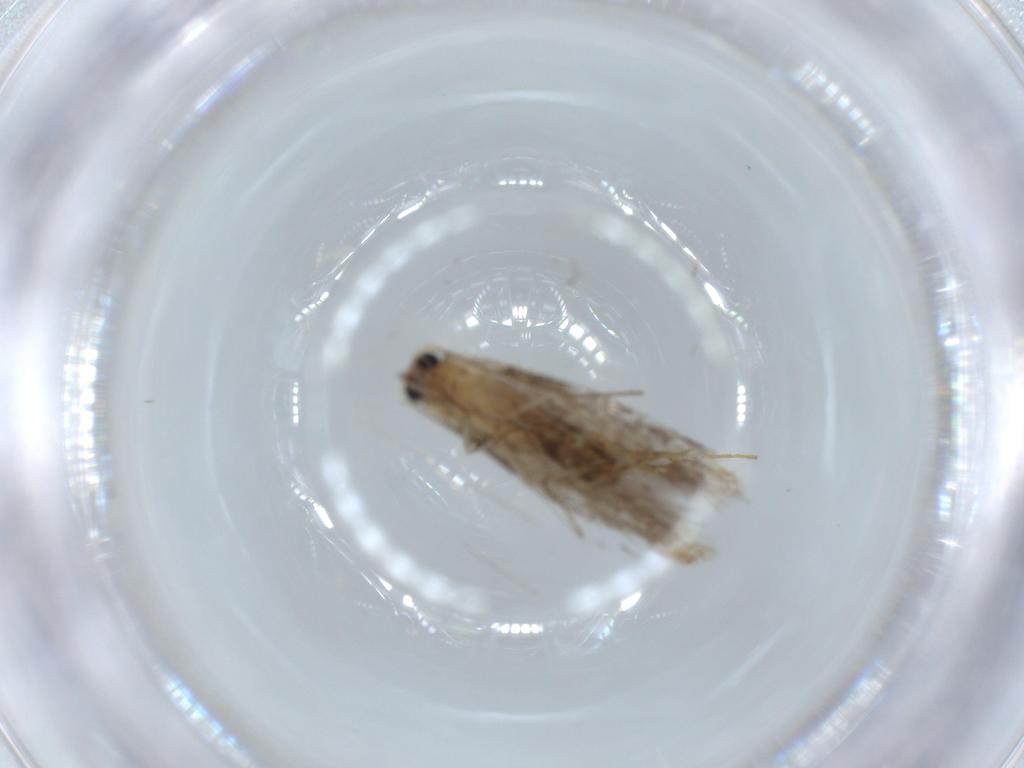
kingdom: Animalia
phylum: Arthropoda
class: Insecta
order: Lepidoptera
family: Tineidae
